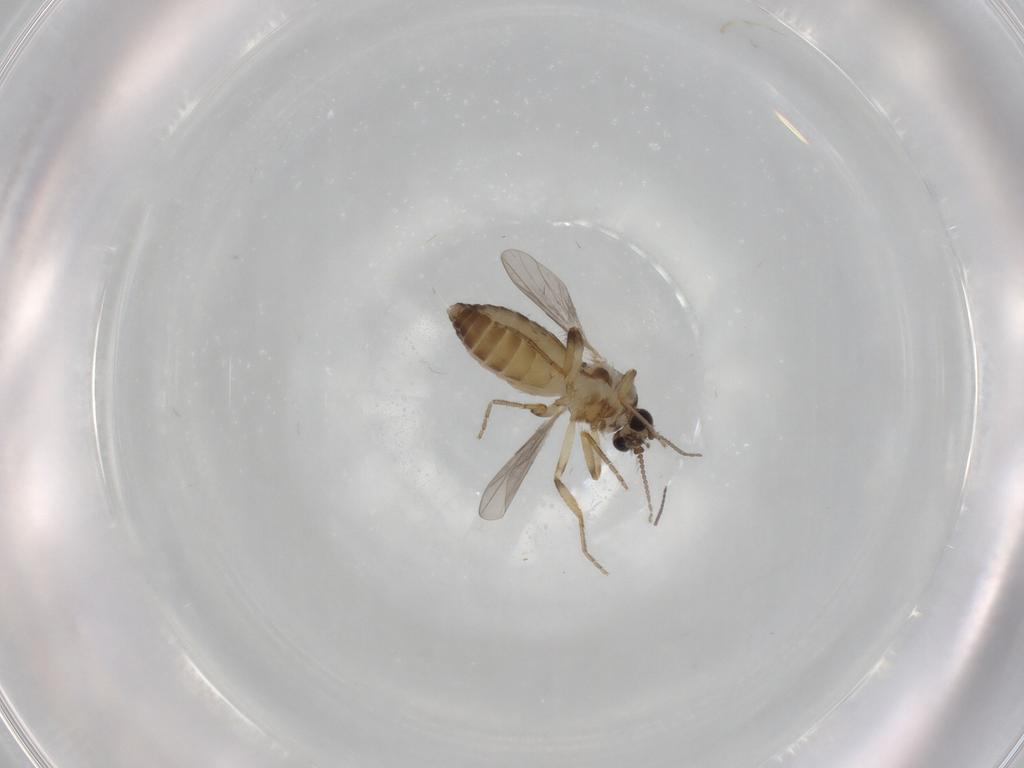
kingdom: Animalia
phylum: Arthropoda
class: Insecta
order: Diptera
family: Ceratopogonidae
